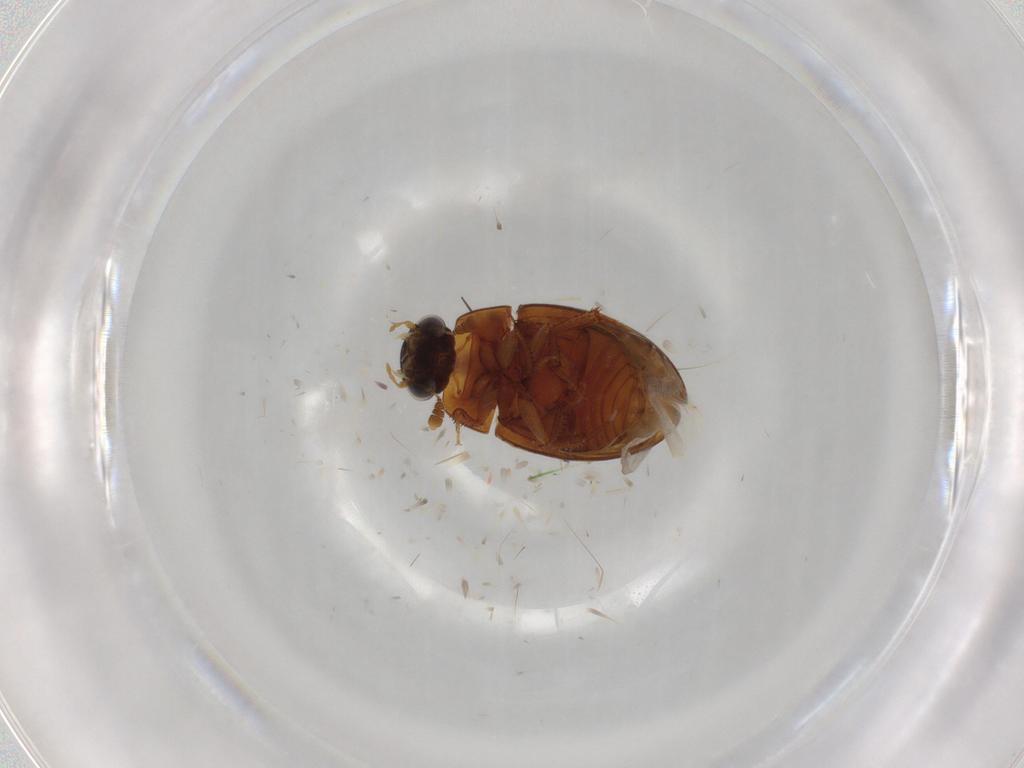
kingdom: Animalia
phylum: Arthropoda
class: Insecta
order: Coleoptera
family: Hydrophilidae
